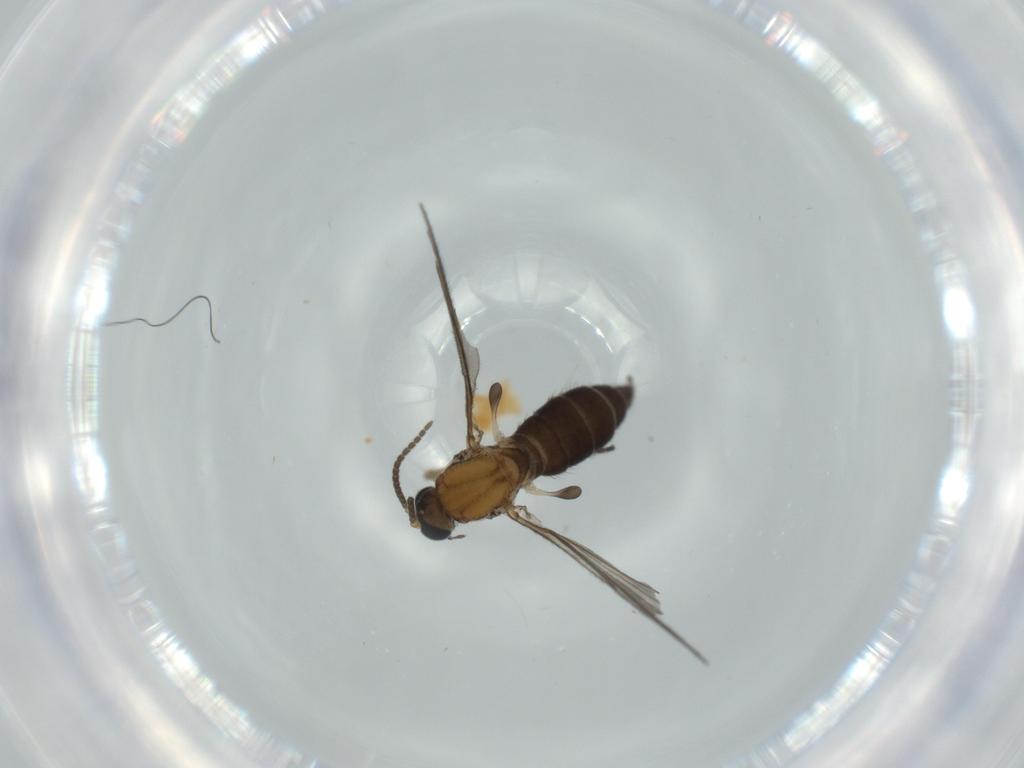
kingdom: Animalia
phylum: Arthropoda
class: Insecta
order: Diptera
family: Sciaridae
